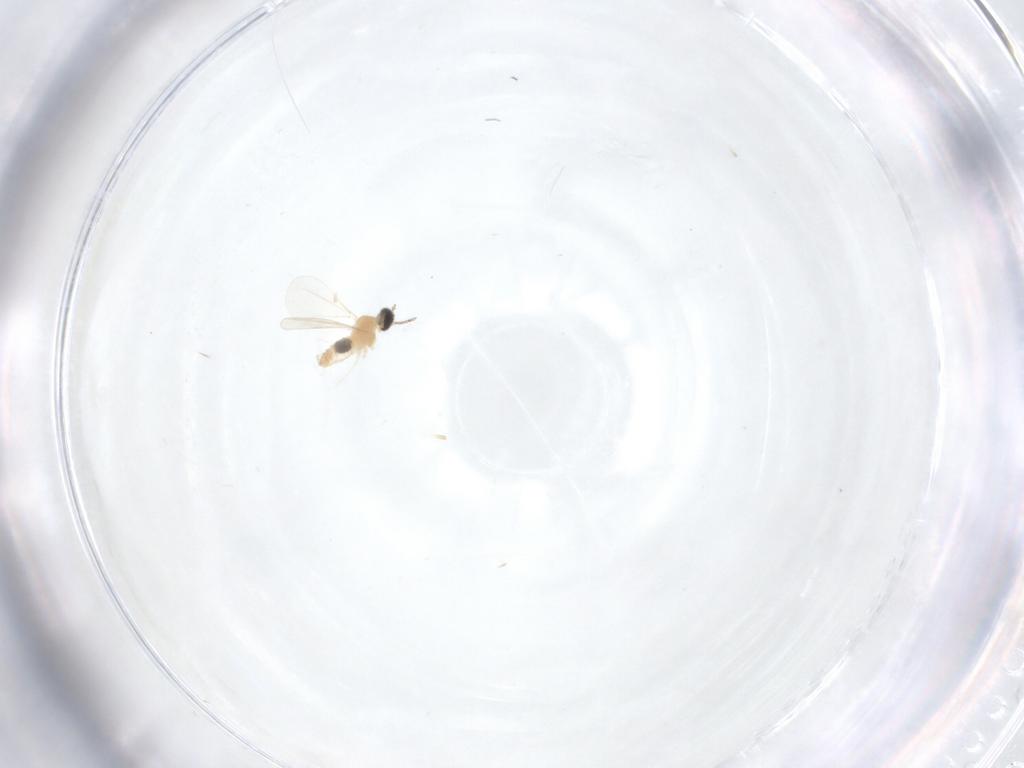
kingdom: Animalia
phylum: Arthropoda
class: Insecta
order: Diptera
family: Cecidomyiidae
